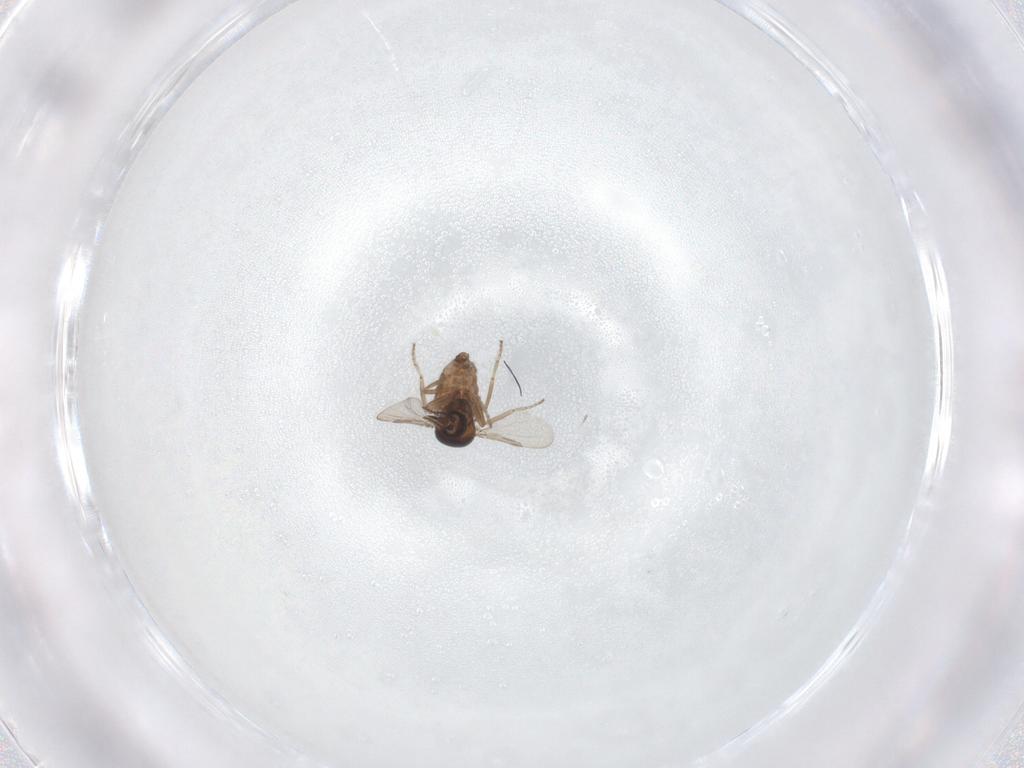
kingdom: Animalia
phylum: Arthropoda
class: Insecta
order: Diptera
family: Ceratopogonidae
